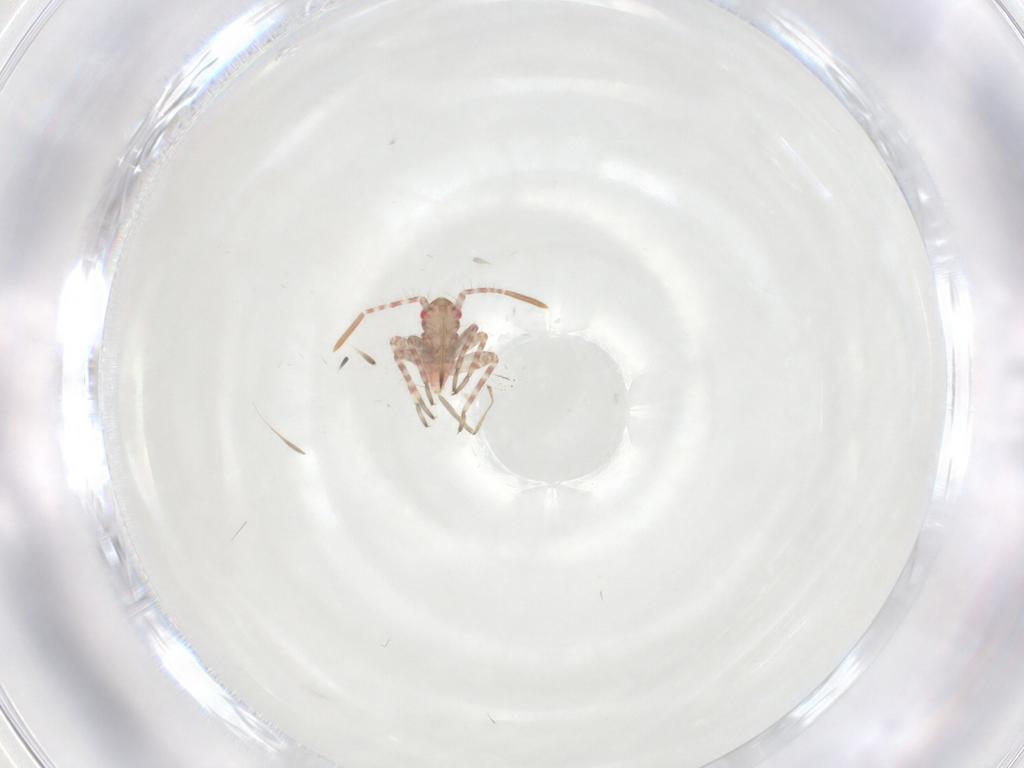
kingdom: Animalia
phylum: Arthropoda
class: Insecta
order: Hemiptera
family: Miridae
